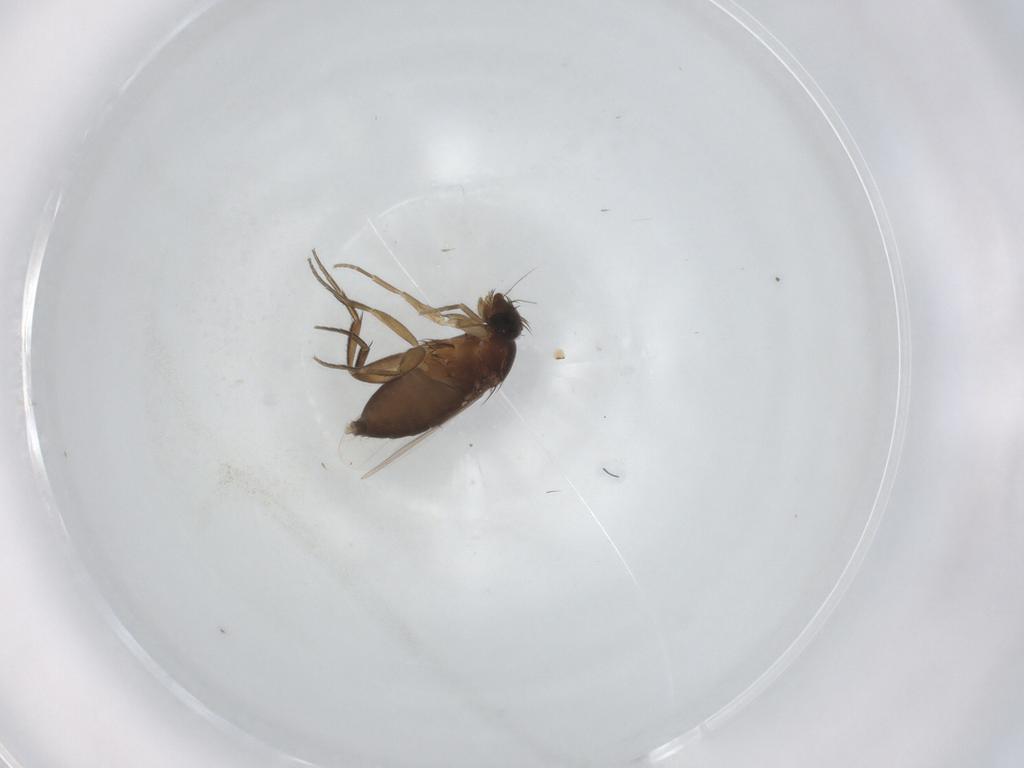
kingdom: Animalia
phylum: Arthropoda
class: Insecta
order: Diptera
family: Phoridae
